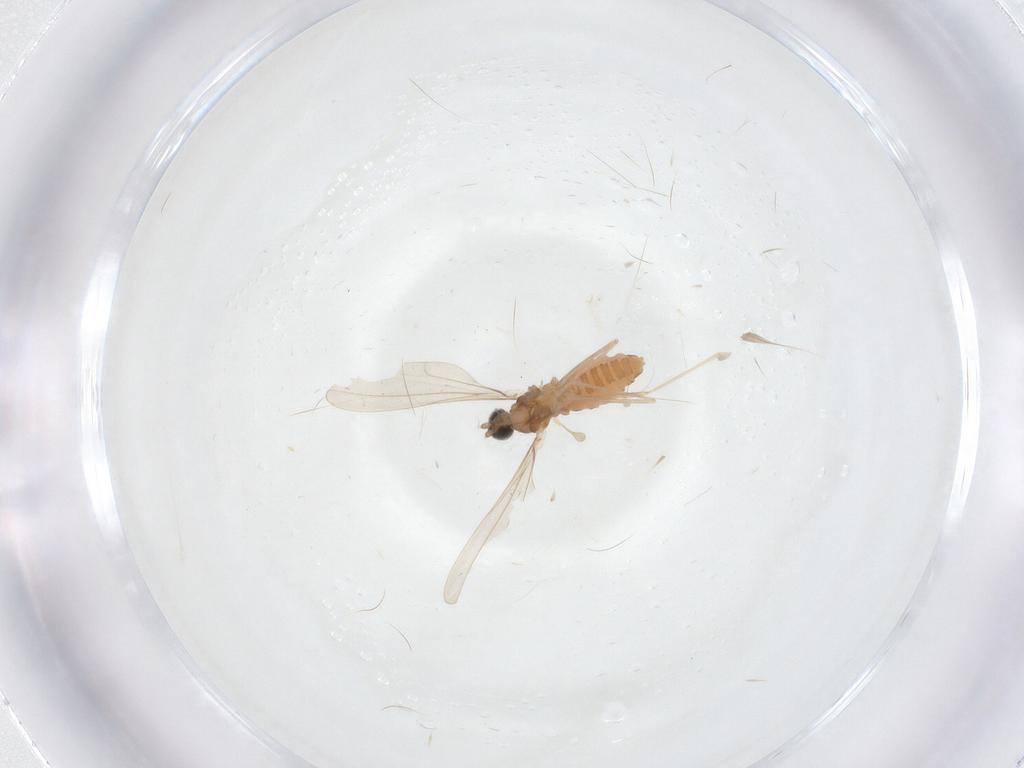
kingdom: Animalia
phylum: Arthropoda
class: Insecta
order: Diptera
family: Cecidomyiidae
